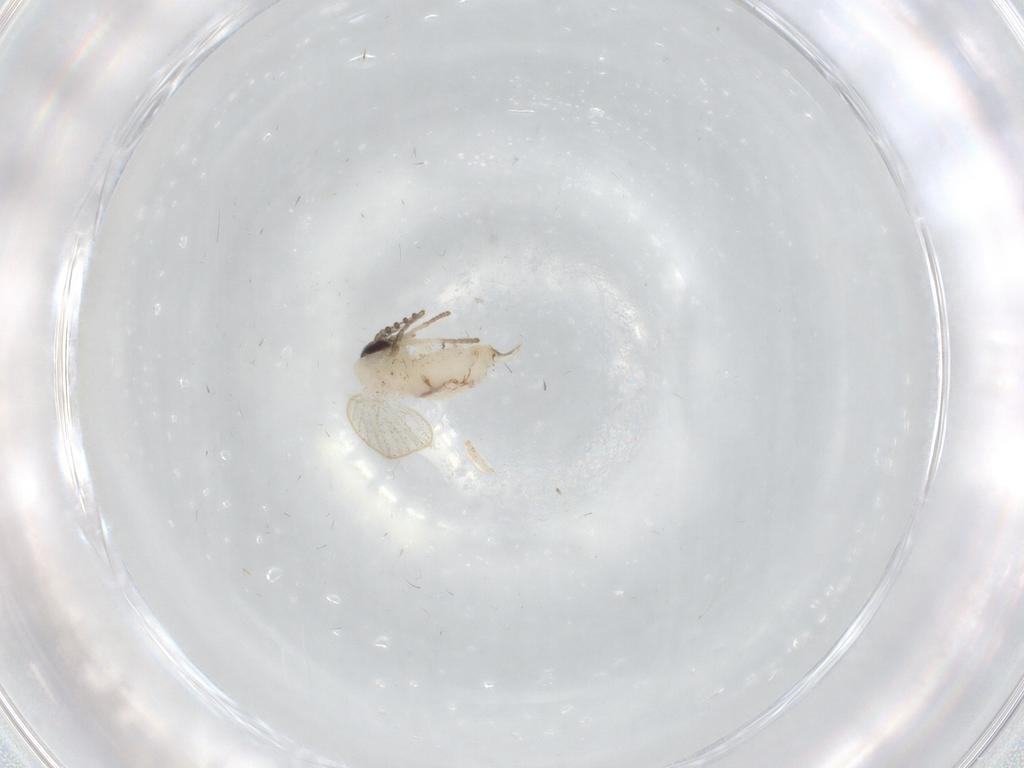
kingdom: Animalia
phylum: Arthropoda
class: Insecta
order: Diptera
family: Psychodidae
